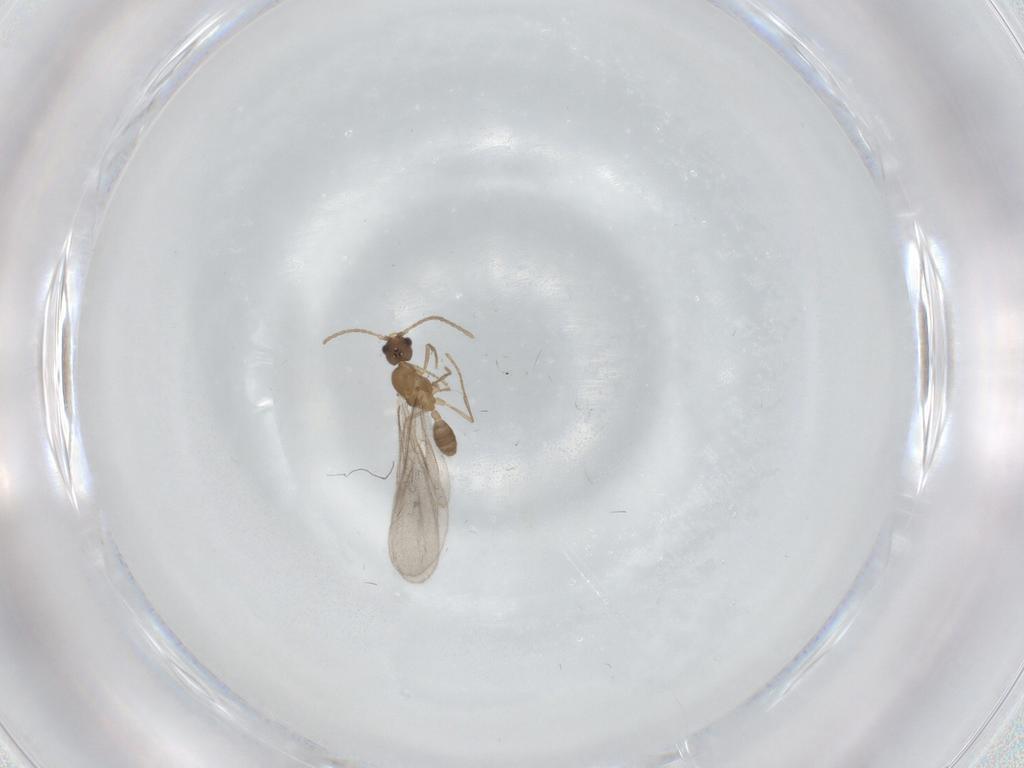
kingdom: Animalia
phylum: Arthropoda
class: Insecta
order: Hymenoptera
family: Formicidae
